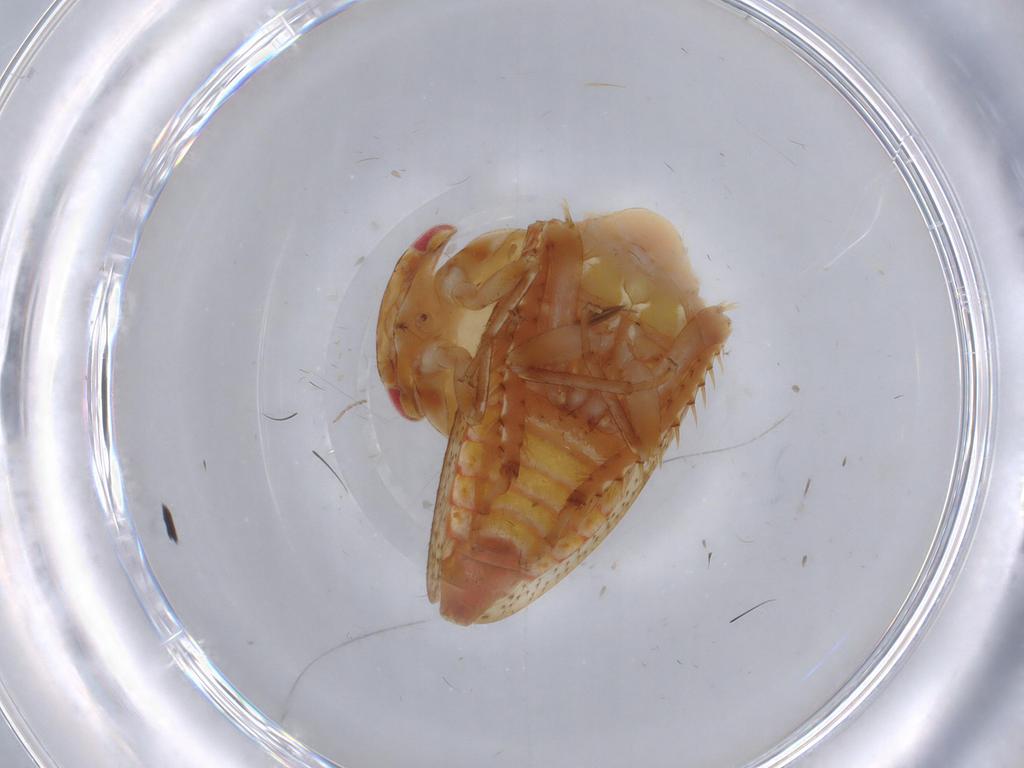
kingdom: Animalia
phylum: Arthropoda
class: Insecta
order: Hemiptera
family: Cicadellidae
